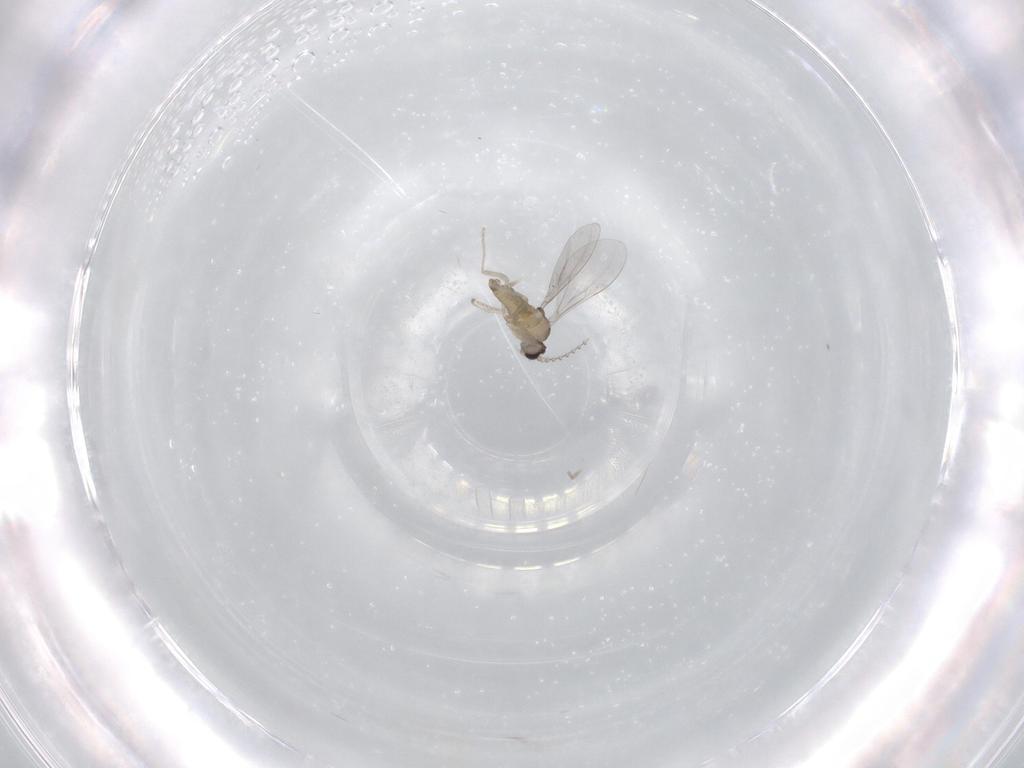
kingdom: Animalia
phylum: Arthropoda
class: Insecta
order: Diptera
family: Cecidomyiidae
